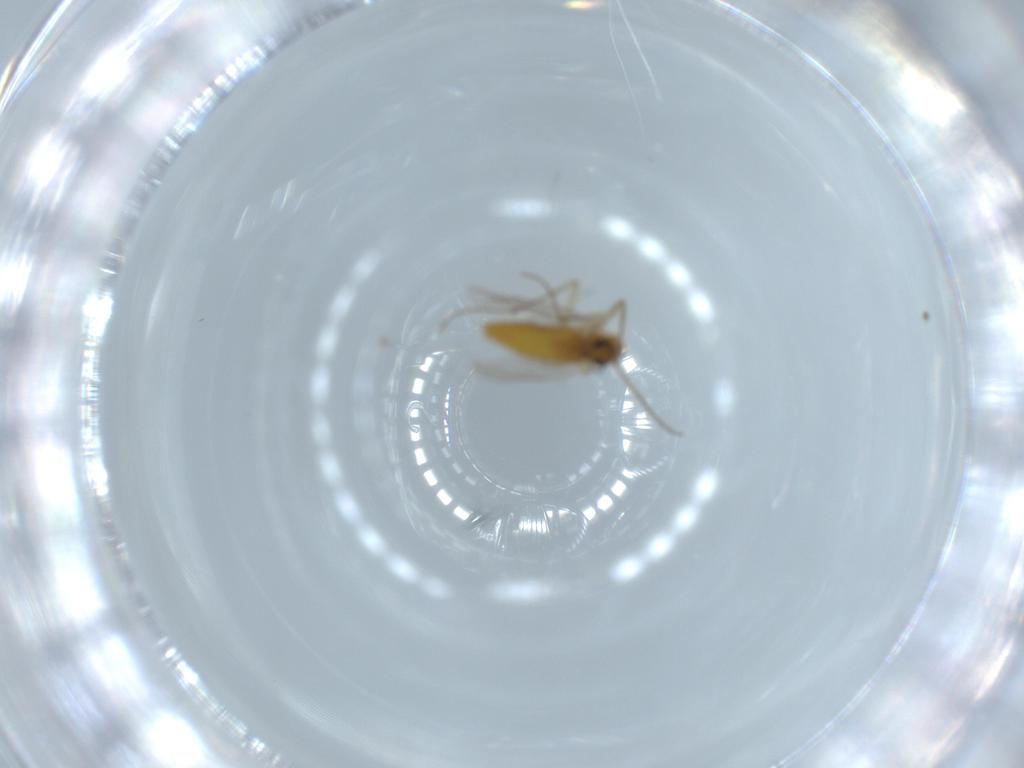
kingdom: Animalia
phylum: Arthropoda
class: Insecta
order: Diptera
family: Chironomidae
